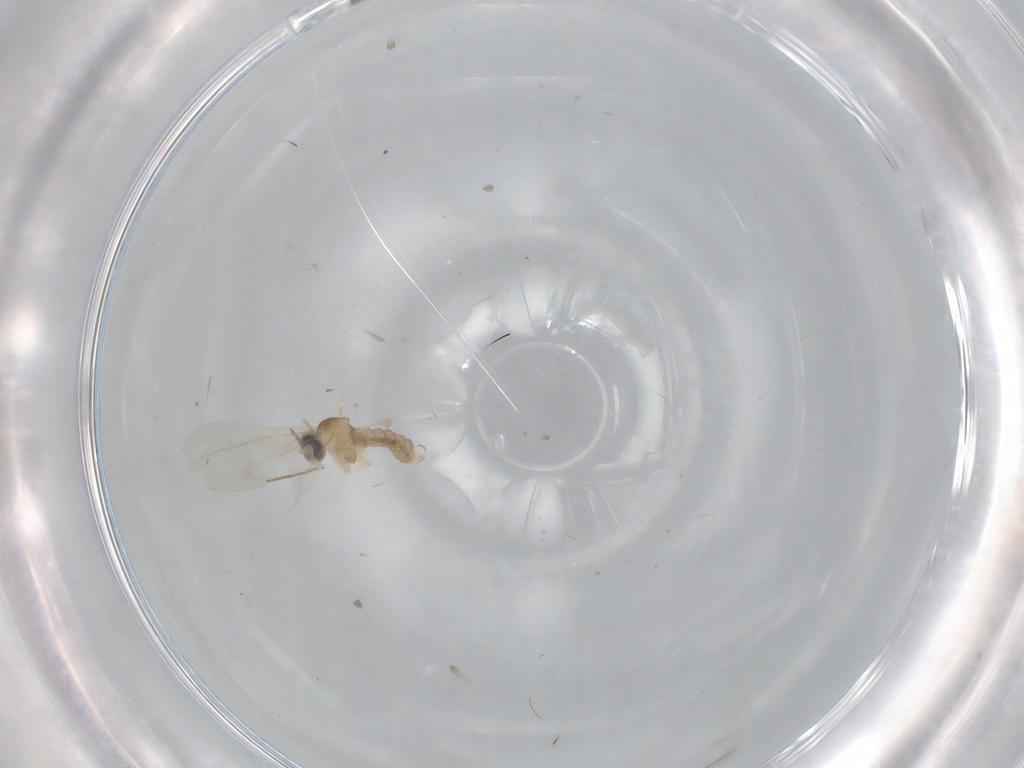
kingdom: Animalia
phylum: Arthropoda
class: Insecta
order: Diptera
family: Cecidomyiidae
